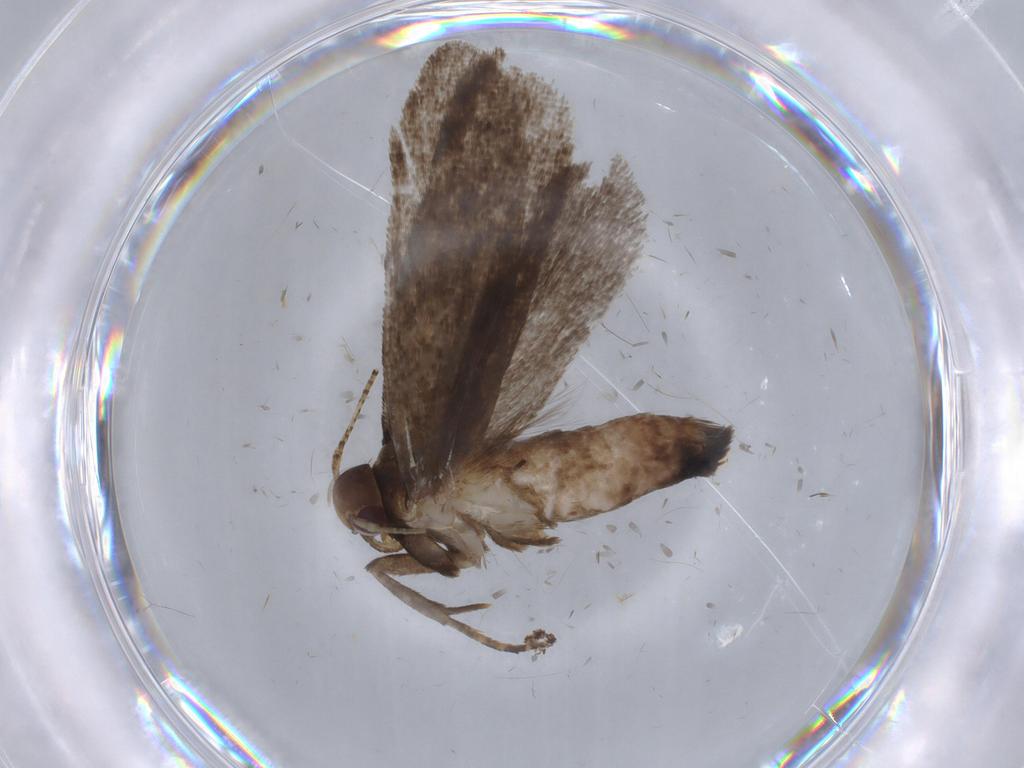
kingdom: Animalia
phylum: Arthropoda
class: Insecta
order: Lepidoptera
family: Gelechiidae
